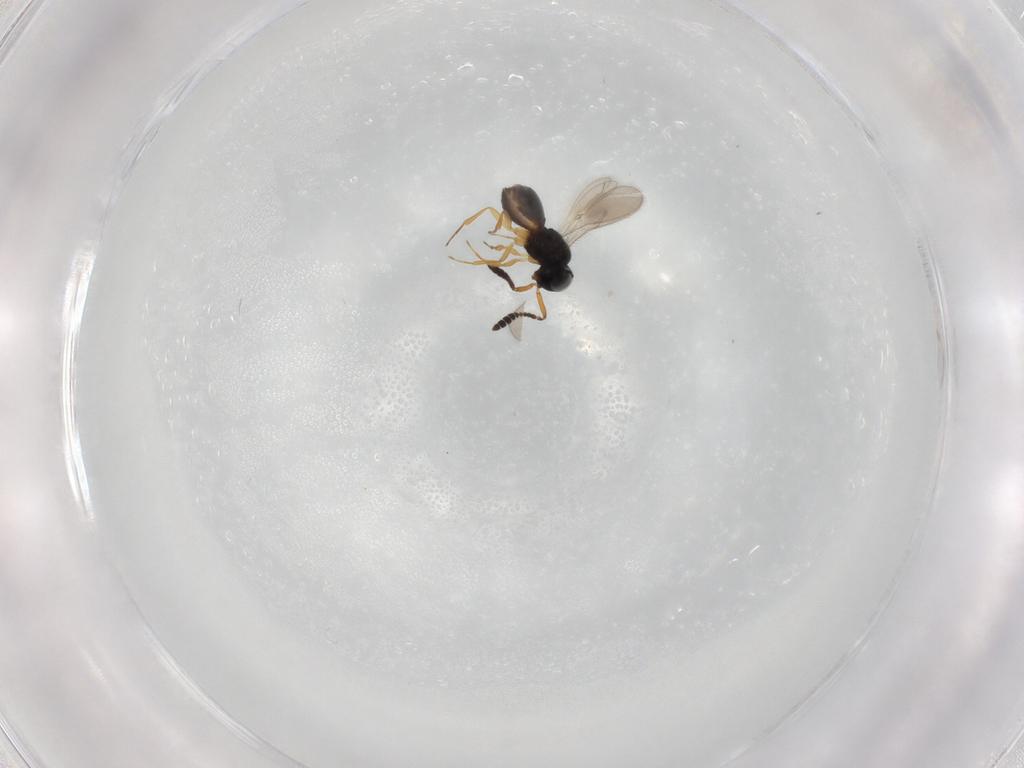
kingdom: Animalia
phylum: Arthropoda
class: Insecta
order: Hymenoptera
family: Scelionidae
